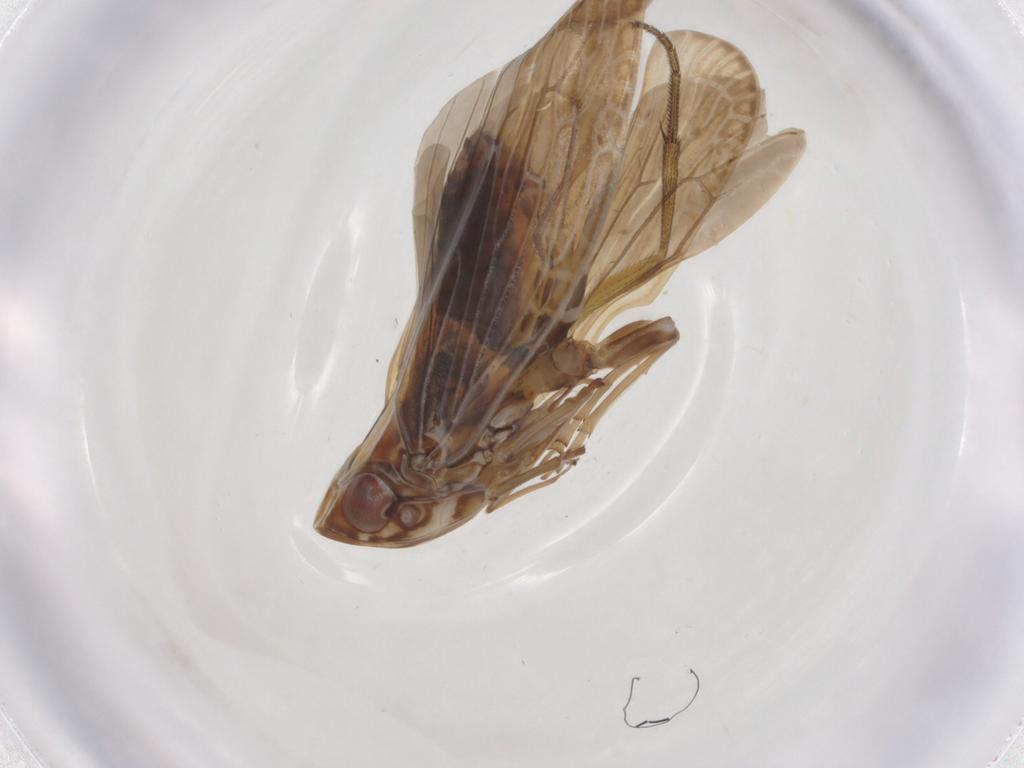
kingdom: Animalia
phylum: Arthropoda
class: Insecta
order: Hemiptera
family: Achilidae
